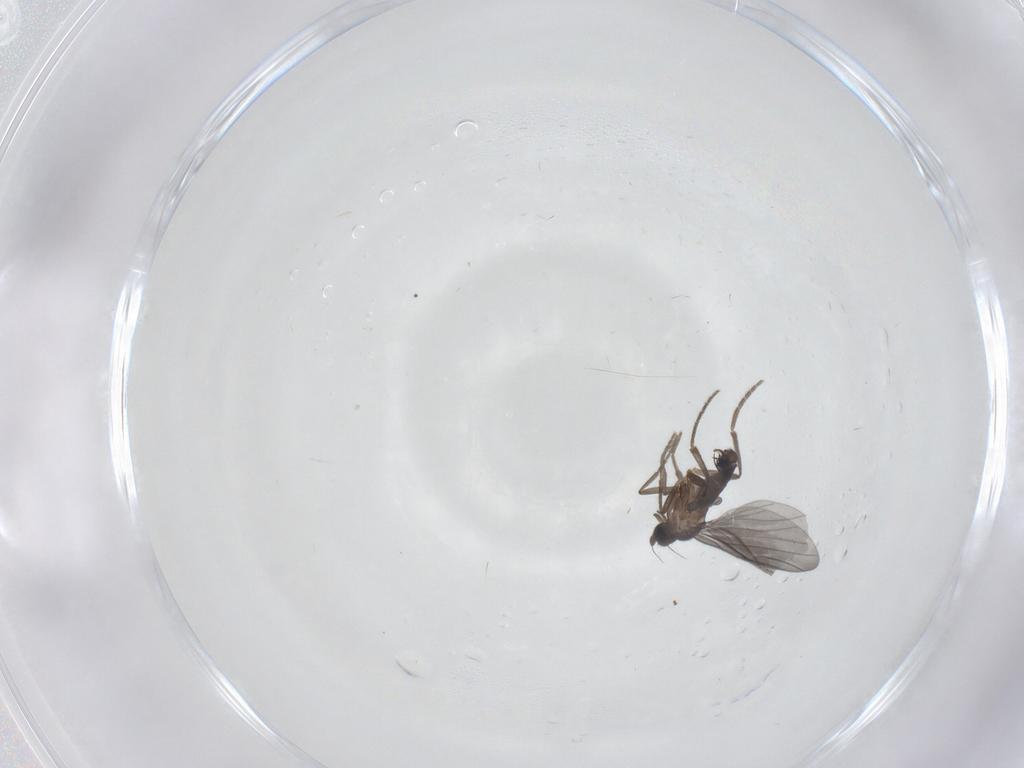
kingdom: Animalia
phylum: Arthropoda
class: Insecta
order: Diptera
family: Phoridae
